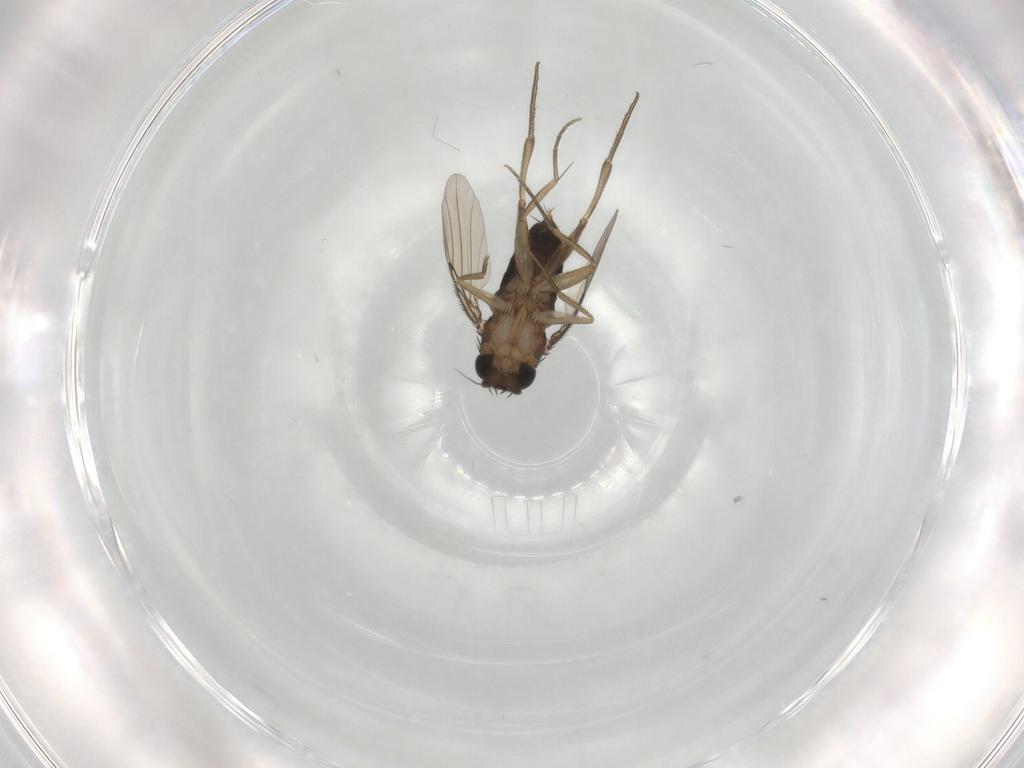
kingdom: Animalia
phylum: Arthropoda
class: Insecta
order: Diptera
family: Phoridae
